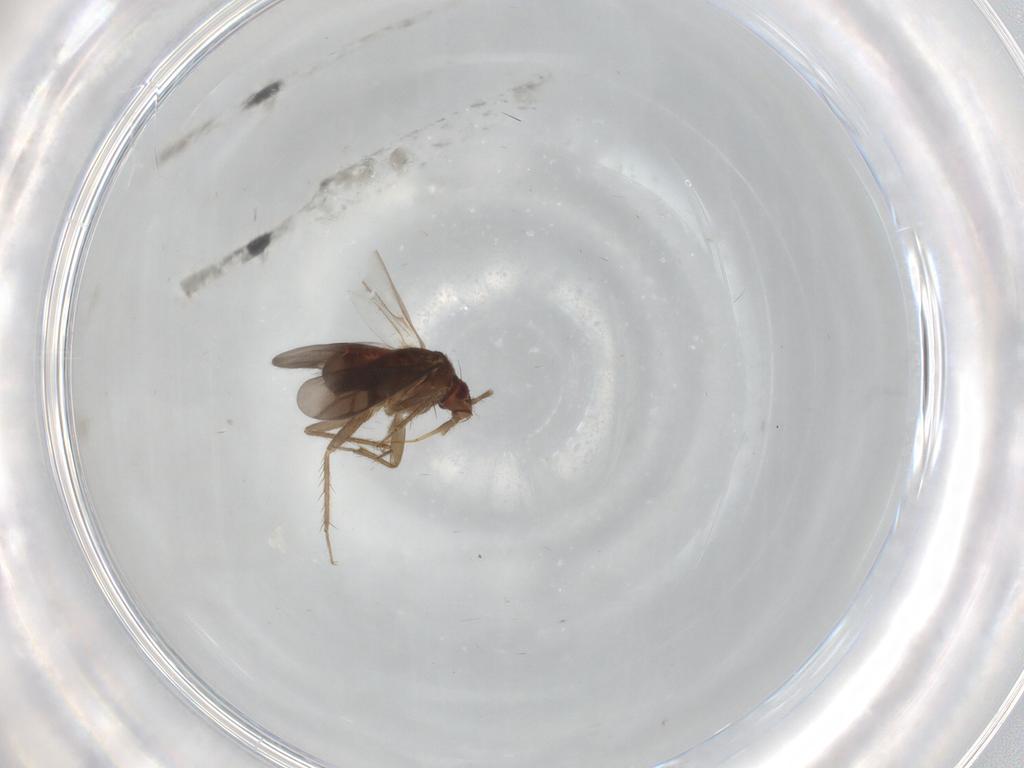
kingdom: Animalia
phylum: Arthropoda
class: Insecta
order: Hemiptera
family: Ceratocombidae
